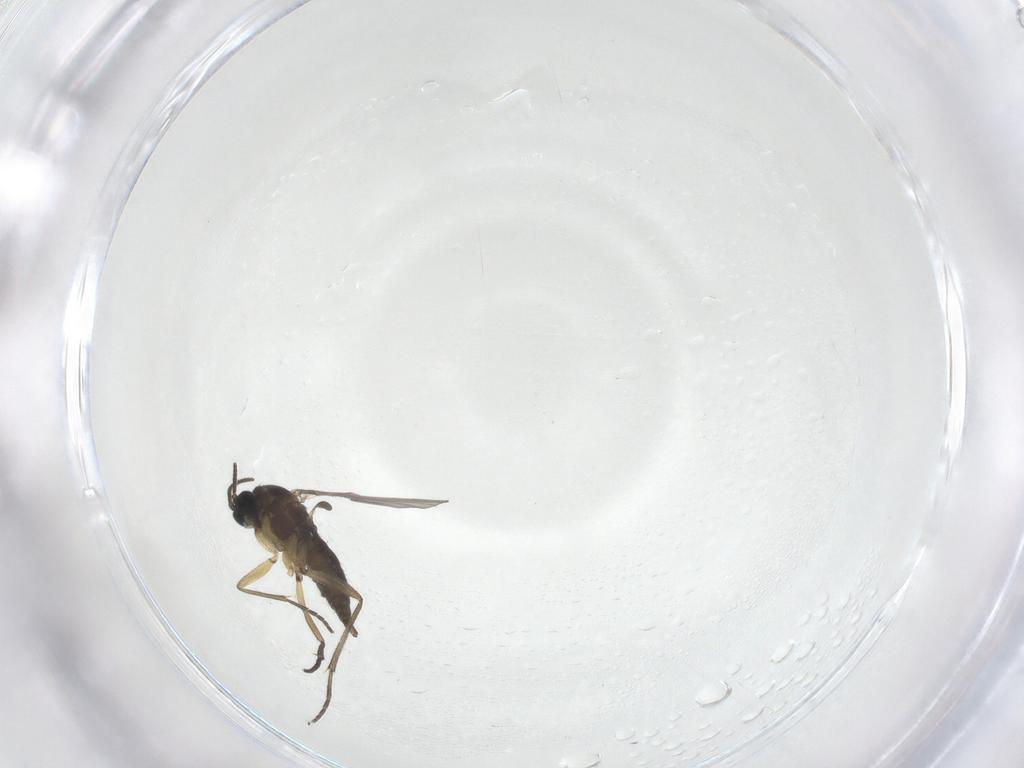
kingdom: Animalia
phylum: Arthropoda
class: Insecta
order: Diptera
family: Sciaridae
